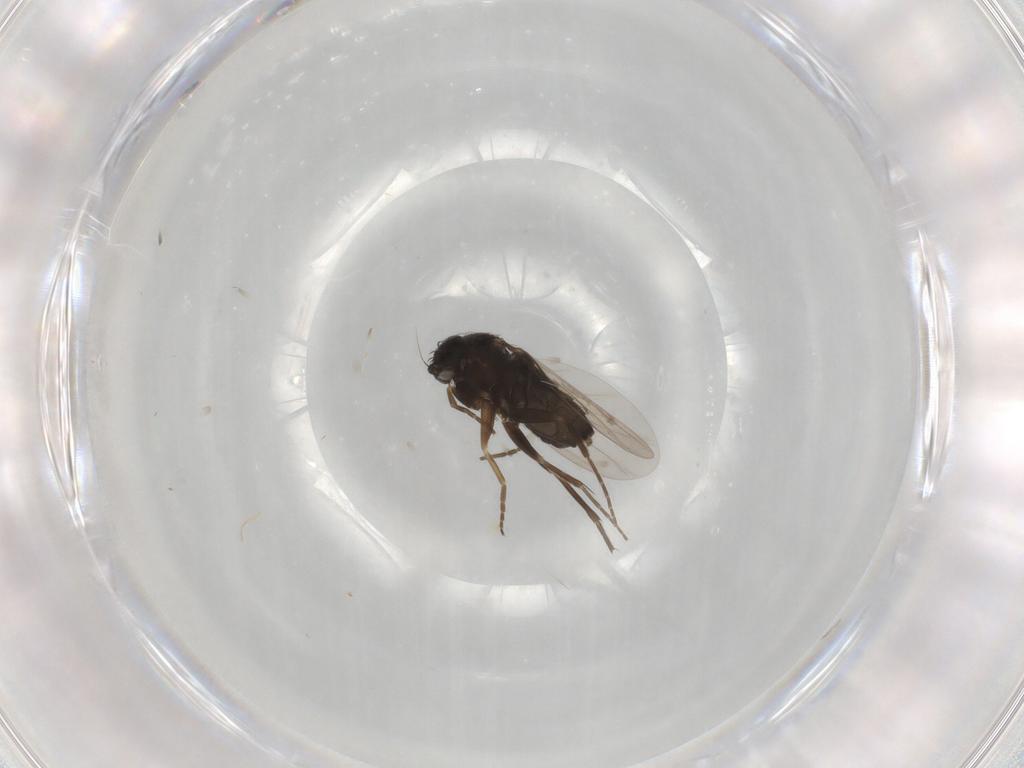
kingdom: Animalia
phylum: Arthropoda
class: Insecta
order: Diptera
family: Phoridae
